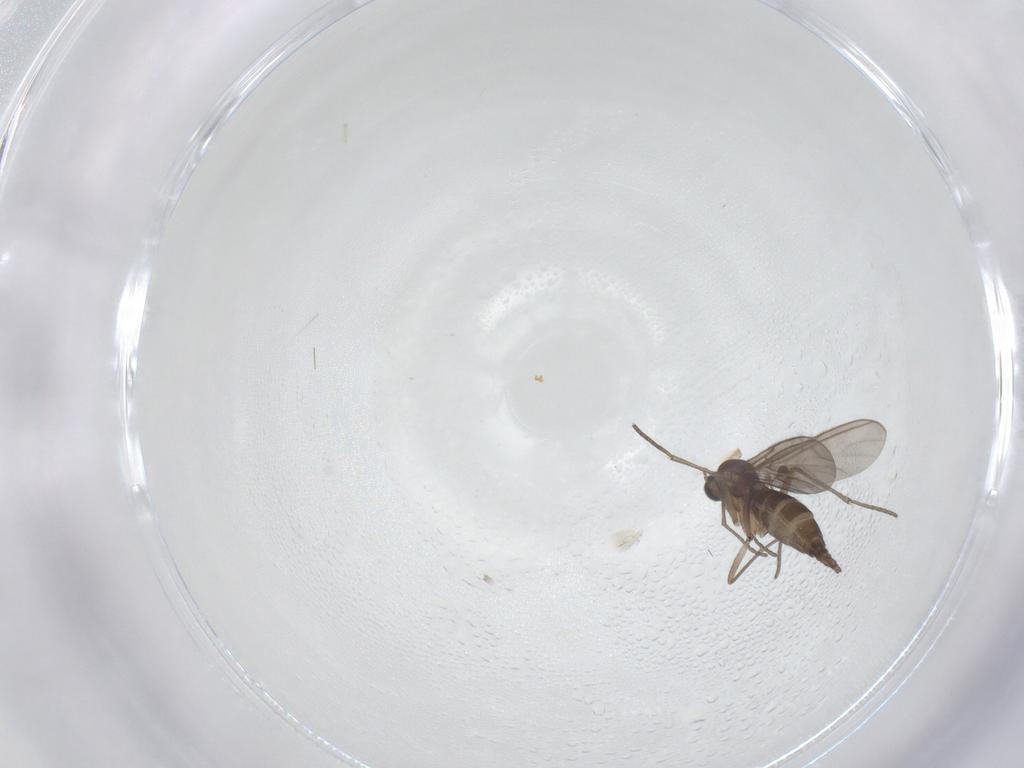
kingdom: Animalia
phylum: Arthropoda
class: Insecta
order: Diptera
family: Sciaridae
